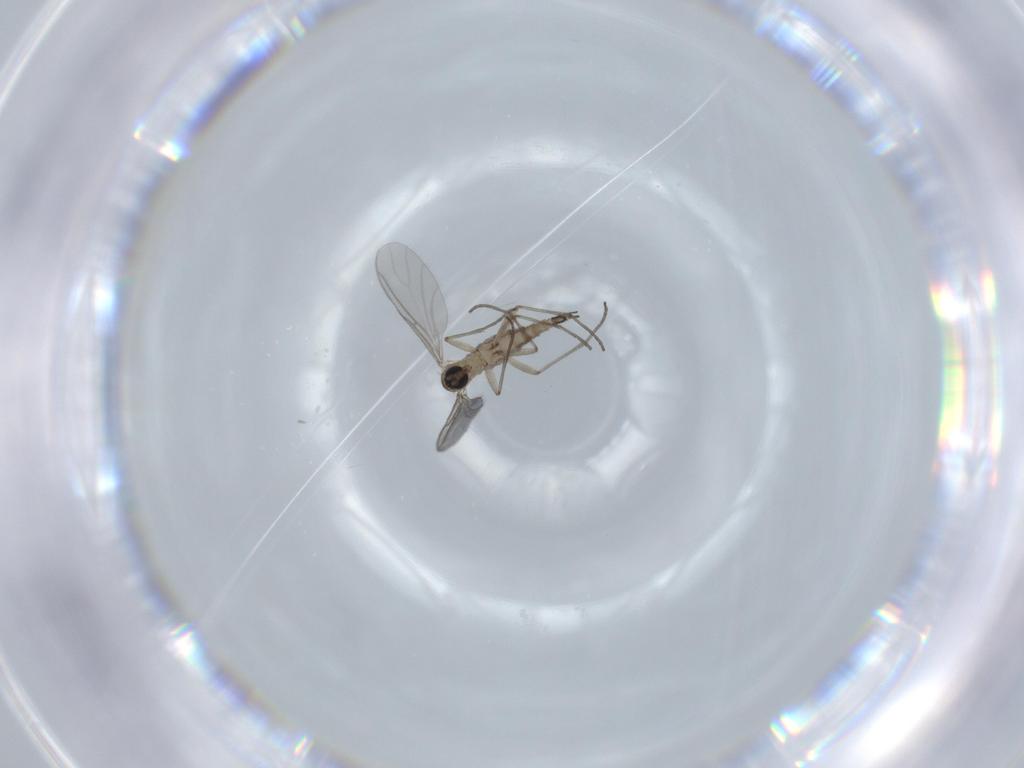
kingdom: Animalia
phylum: Arthropoda
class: Insecta
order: Diptera
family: Sciaridae
